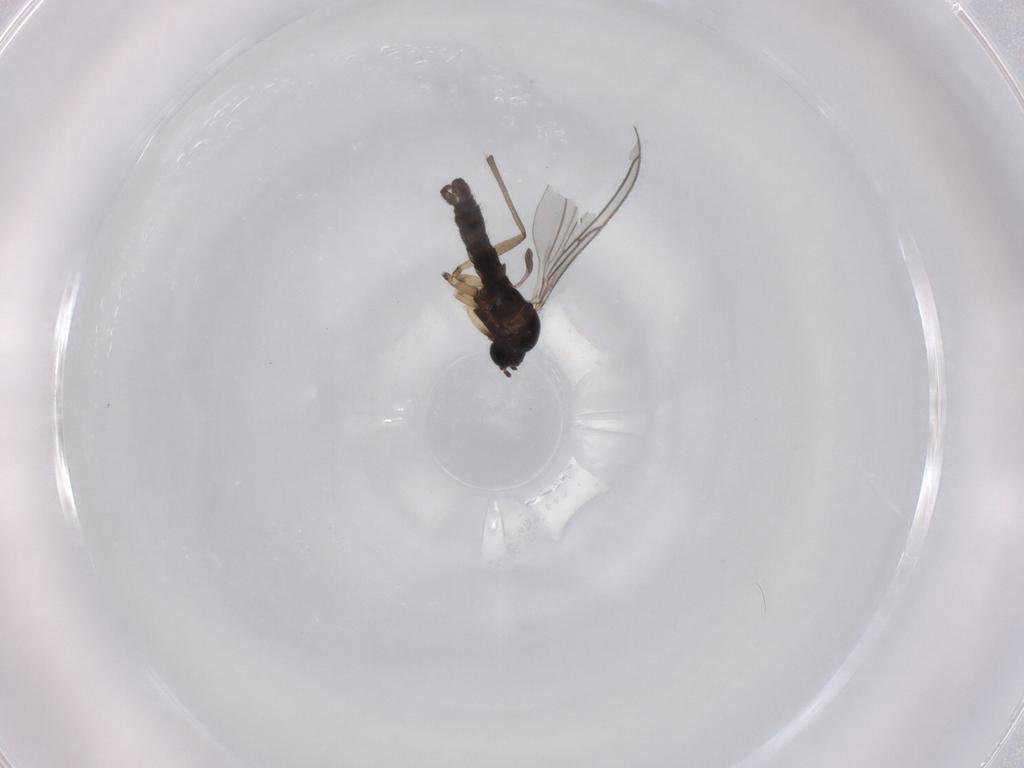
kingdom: Animalia
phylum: Arthropoda
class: Insecta
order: Diptera
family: Sciaridae
